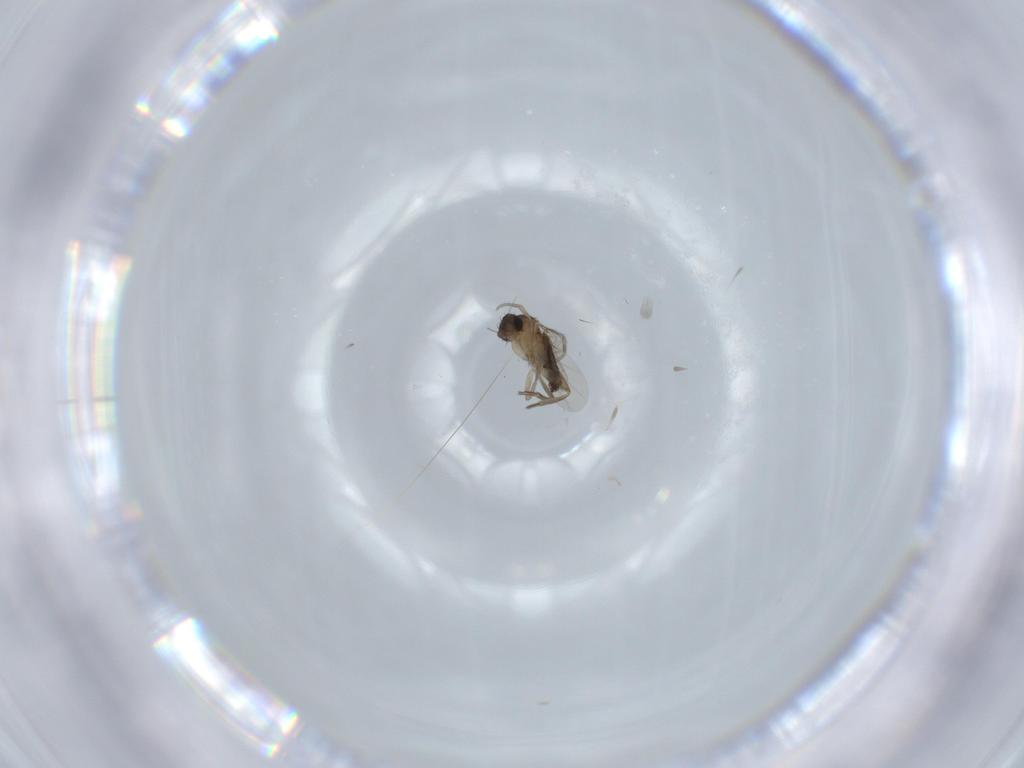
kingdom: Animalia
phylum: Arthropoda
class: Insecta
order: Diptera
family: Phoridae
